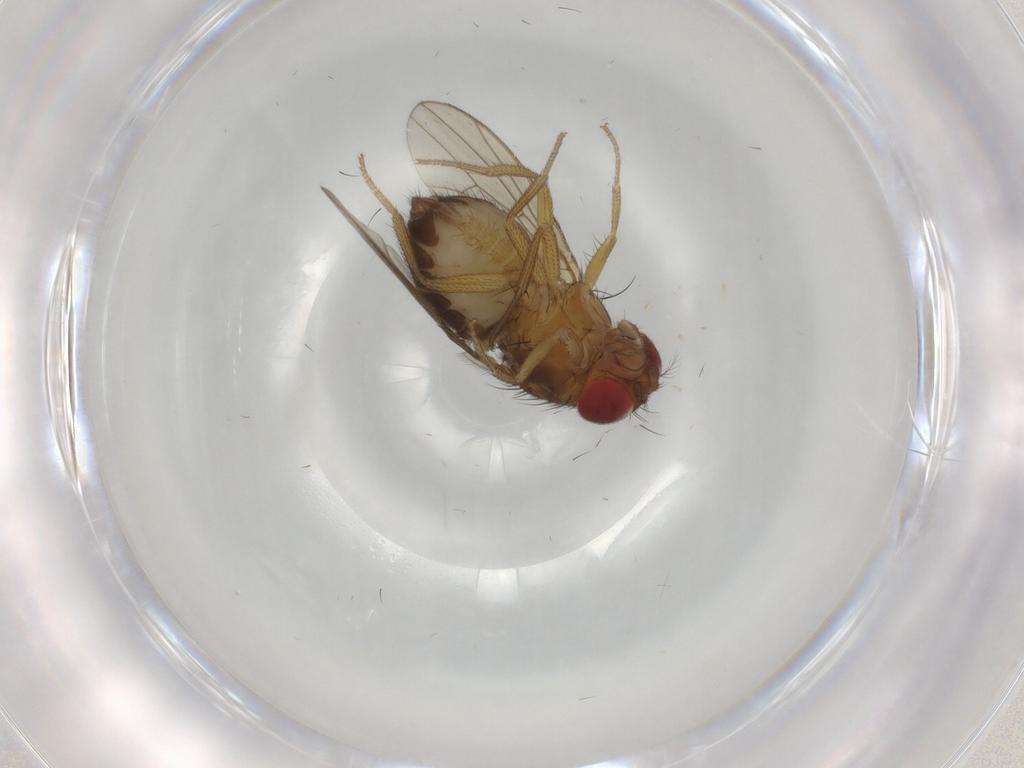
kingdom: Animalia
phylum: Arthropoda
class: Insecta
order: Diptera
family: Drosophilidae
